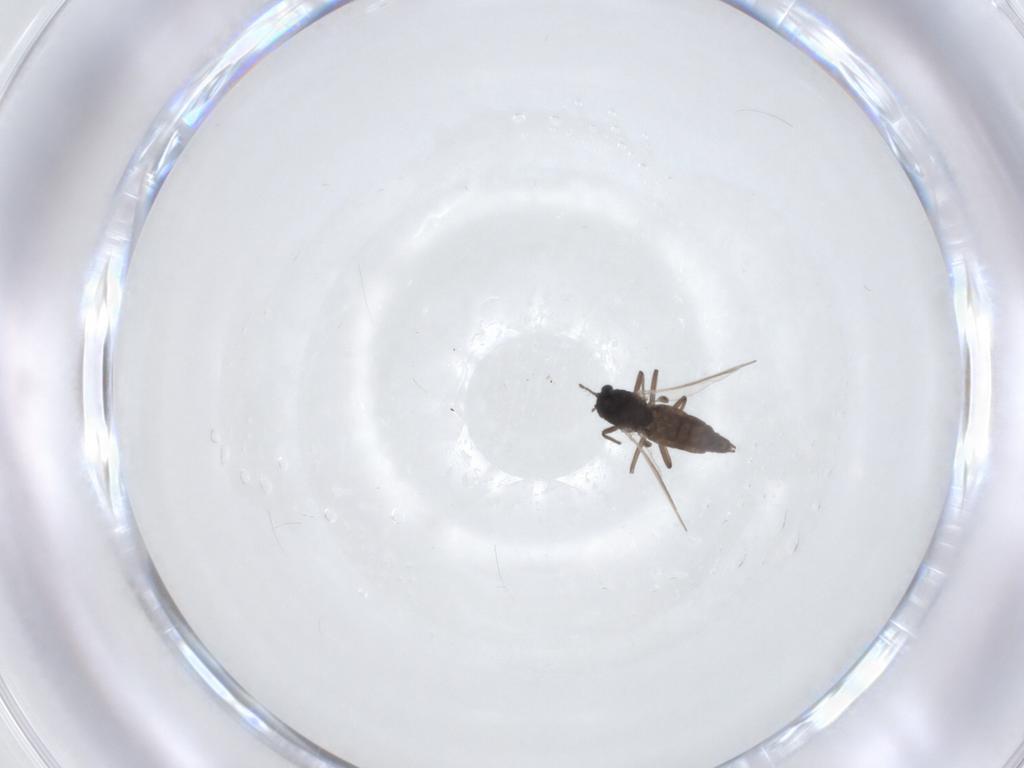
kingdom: Animalia
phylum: Arthropoda
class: Insecta
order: Diptera
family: Chironomidae
